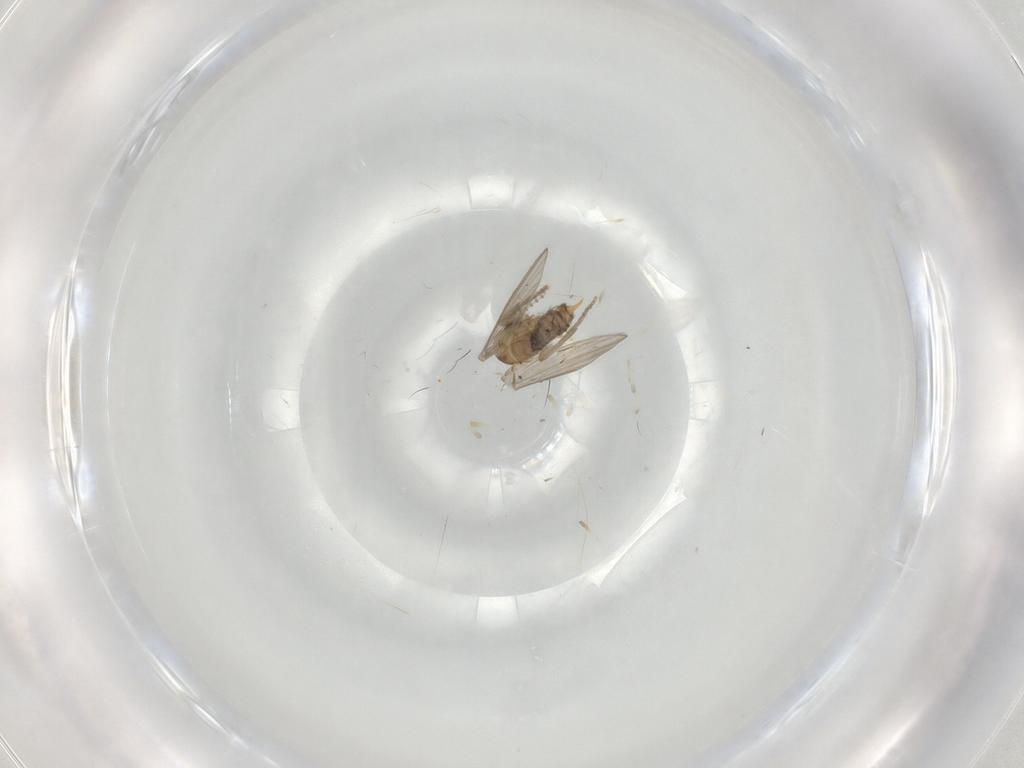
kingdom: Animalia
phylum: Arthropoda
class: Insecta
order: Diptera
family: Psychodidae
